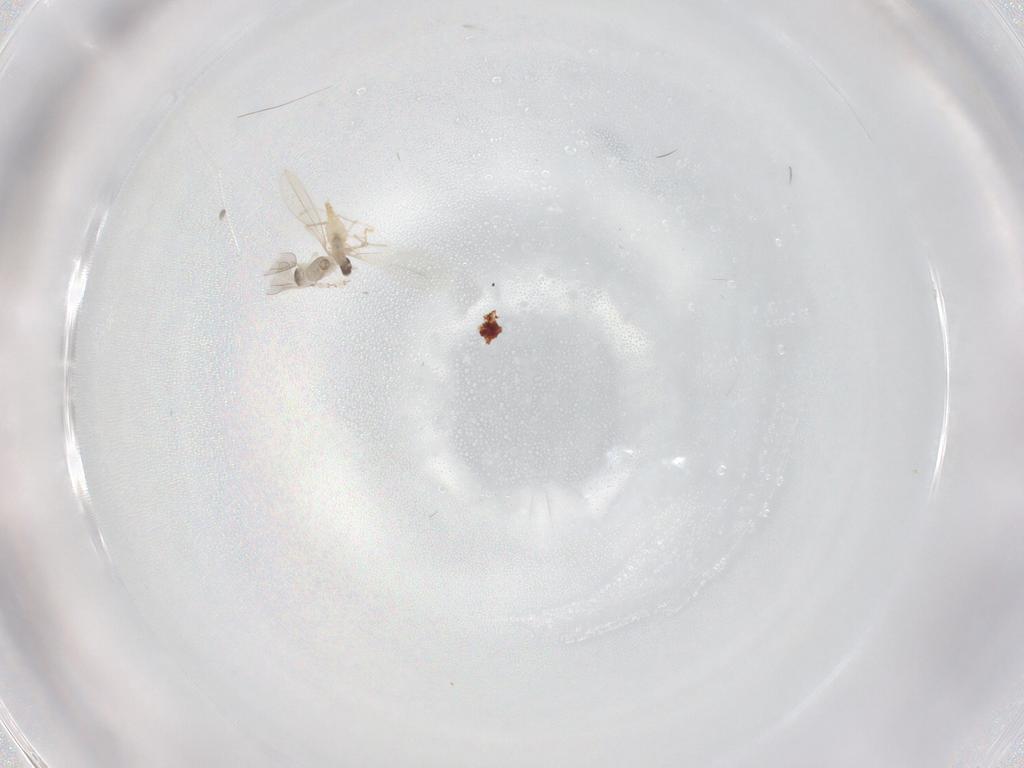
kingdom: Animalia
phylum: Arthropoda
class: Insecta
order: Diptera
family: Cecidomyiidae
